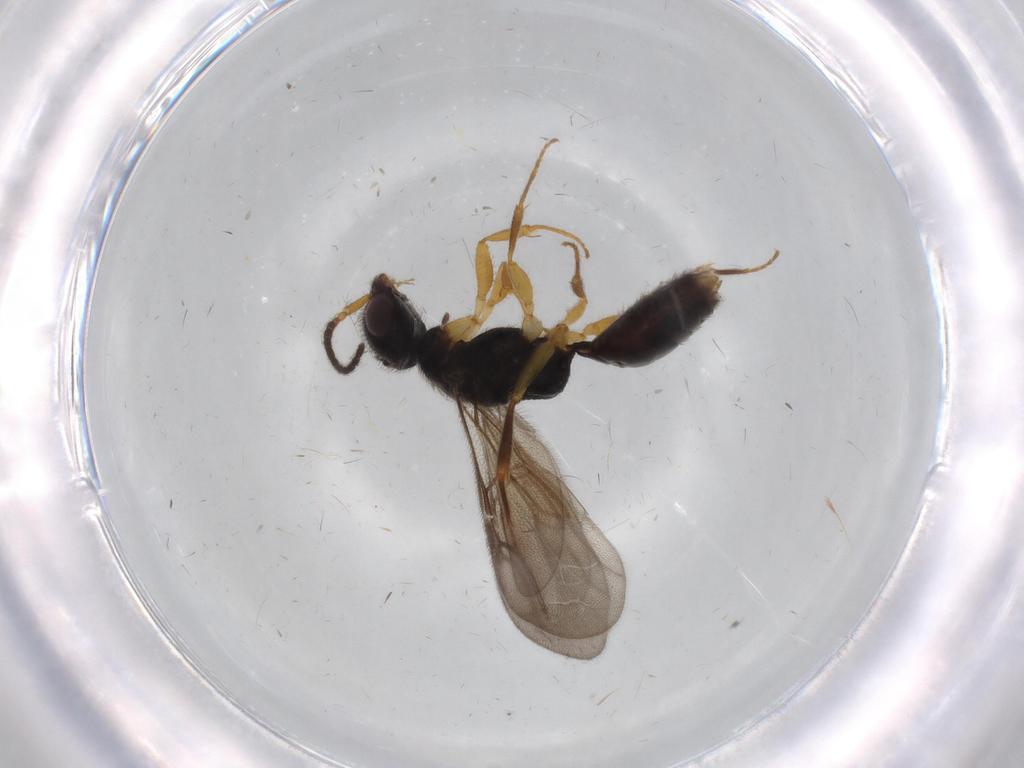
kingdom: Animalia
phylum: Arthropoda
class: Insecta
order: Hymenoptera
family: Bethylidae
